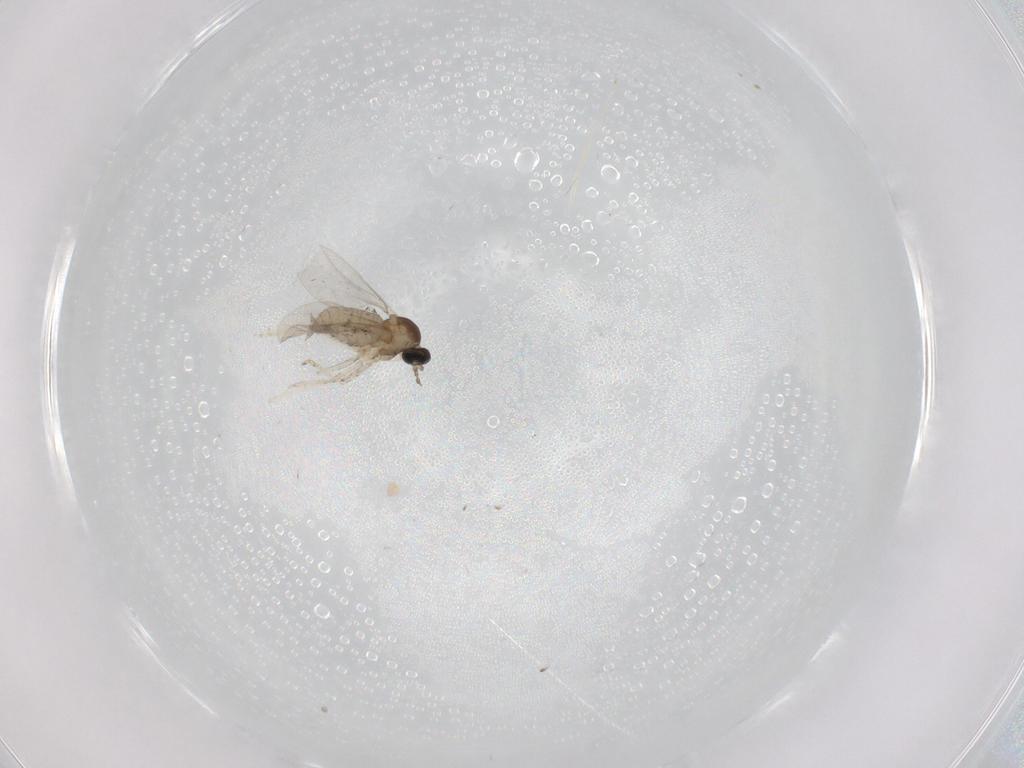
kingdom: Animalia
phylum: Arthropoda
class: Insecta
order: Diptera
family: Cecidomyiidae
